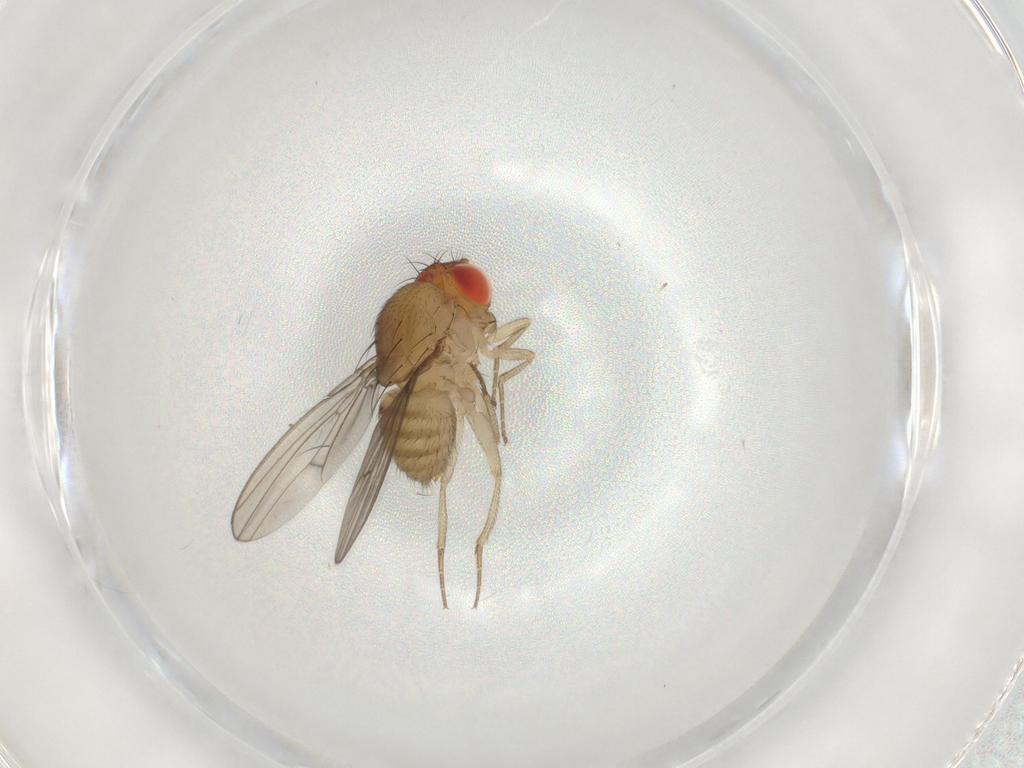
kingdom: Animalia
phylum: Arthropoda
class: Insecta
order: Diptera
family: Drosophilidae
